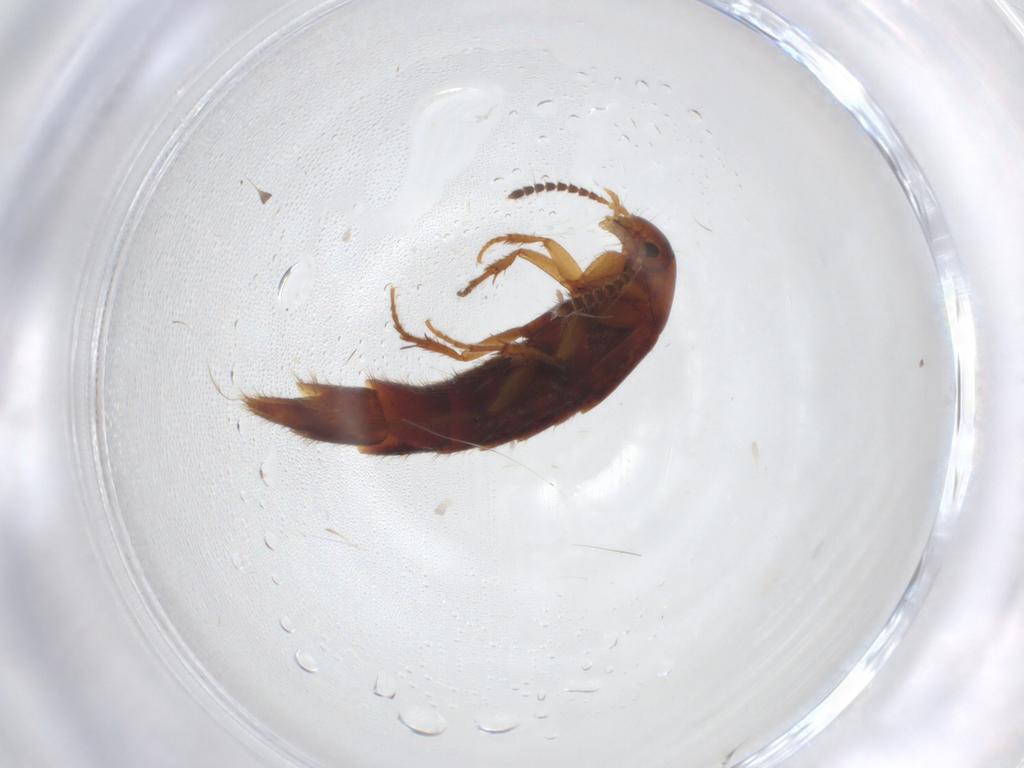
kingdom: Animalia
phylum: Arthropoda
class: Insecta
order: Coleoptera
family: Staphylinidae
